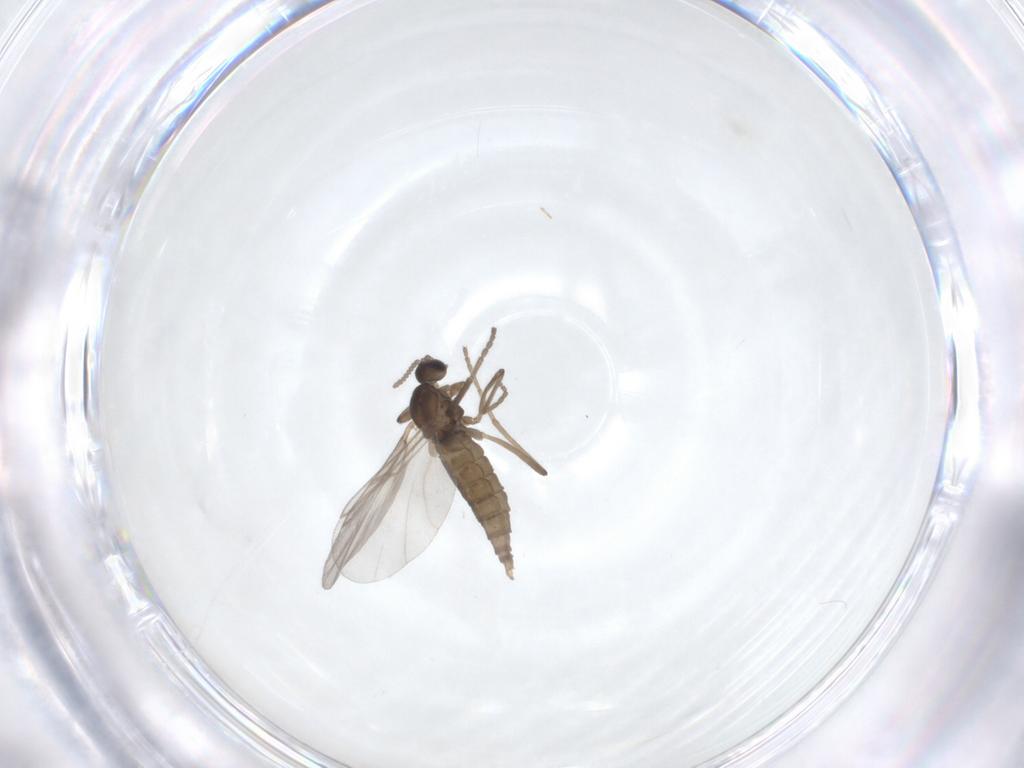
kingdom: Animalia
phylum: Arthropoda
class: Insecta
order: Diptera
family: Cecidomyiidae
